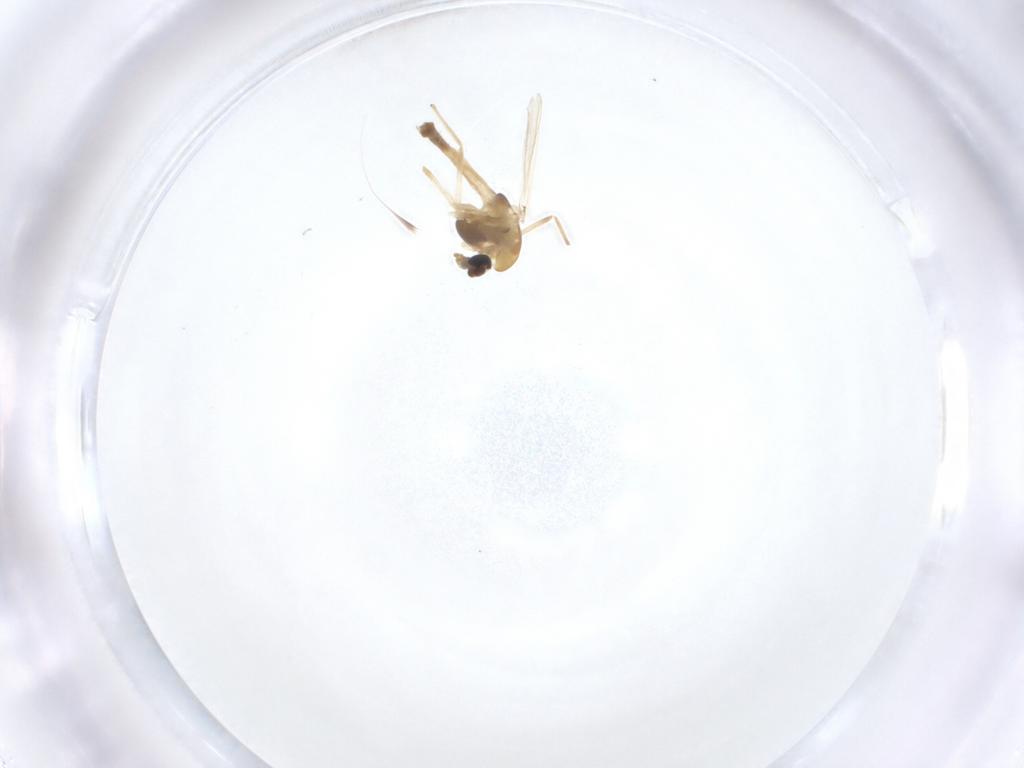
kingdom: Animalia
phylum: Arthropoda
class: Insecta
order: Diptera
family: Chironomidae
